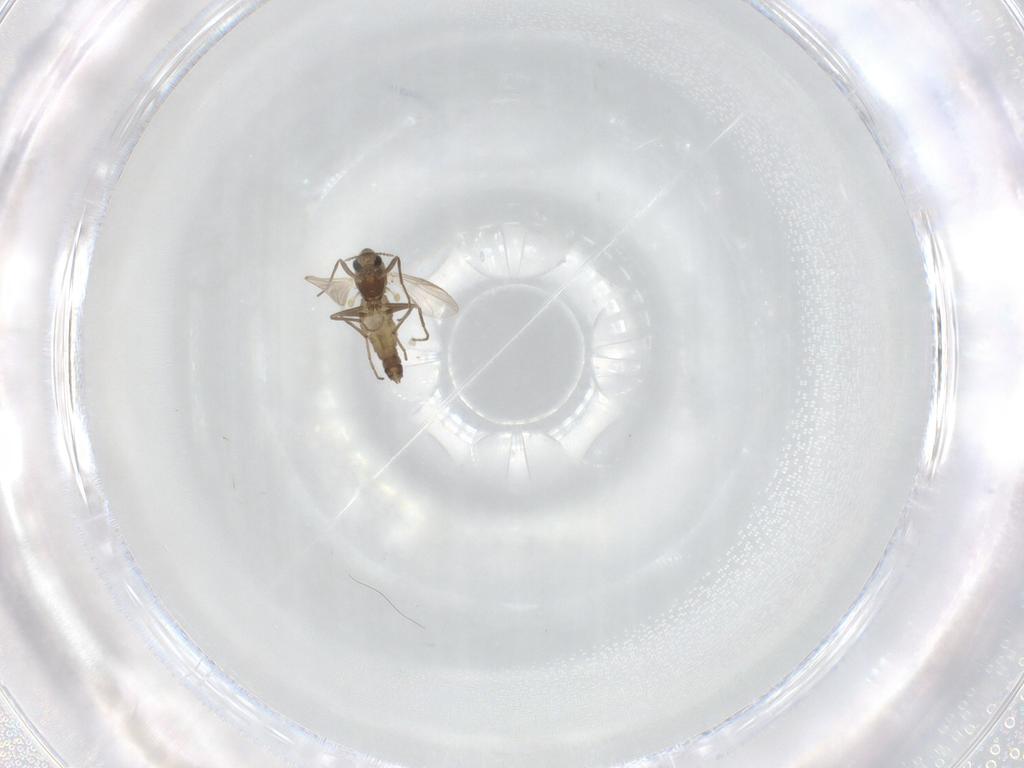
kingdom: Animalia
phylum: Arthropoda
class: Insecta
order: Diptera
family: Chironomidae
